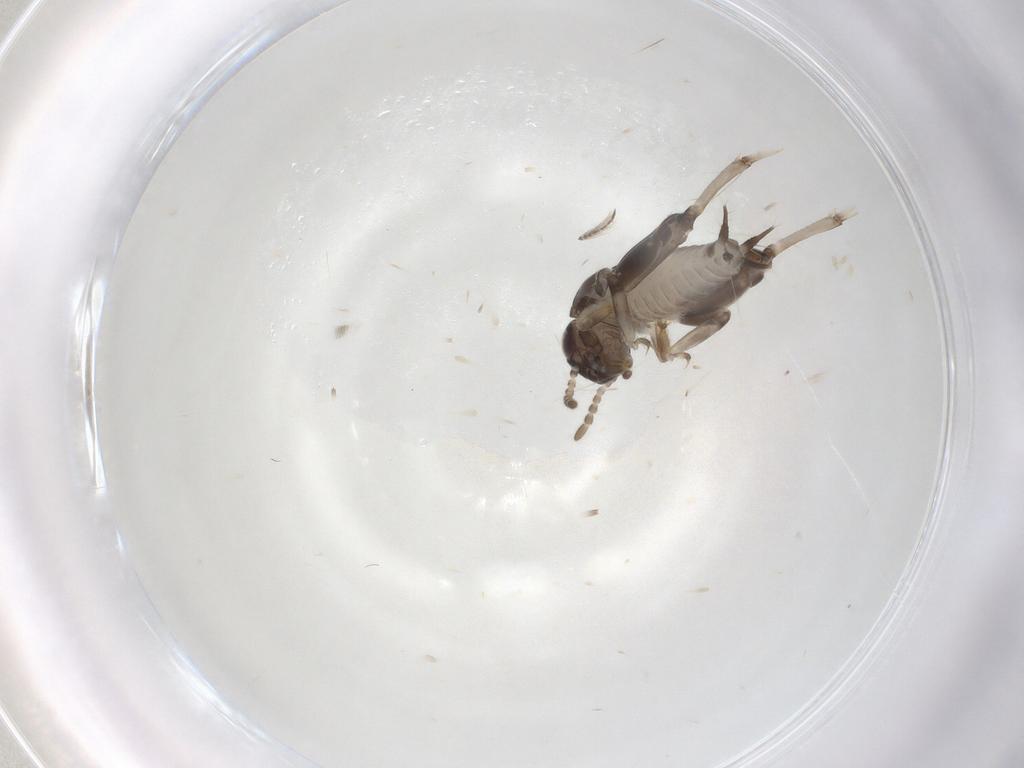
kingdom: Animalia
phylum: Arthropoda
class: Insecta
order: Orthoptera
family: Tridactylidae
